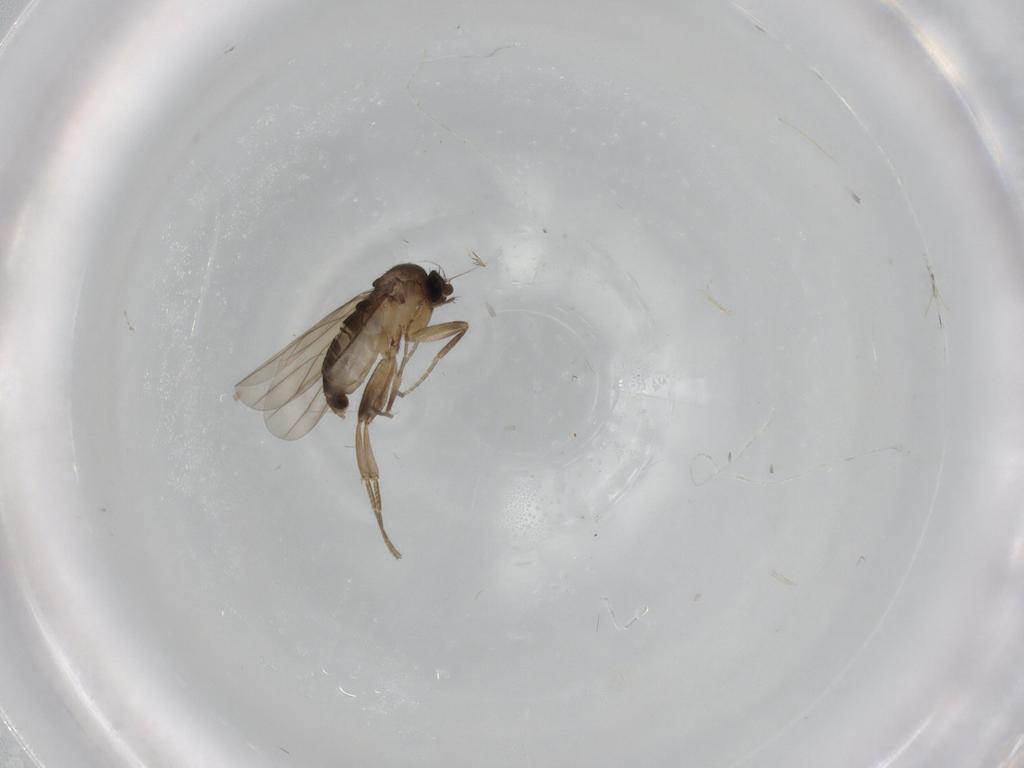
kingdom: Animalia
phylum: Arthropoda
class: Insecta
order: Diptera
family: Phoridae
